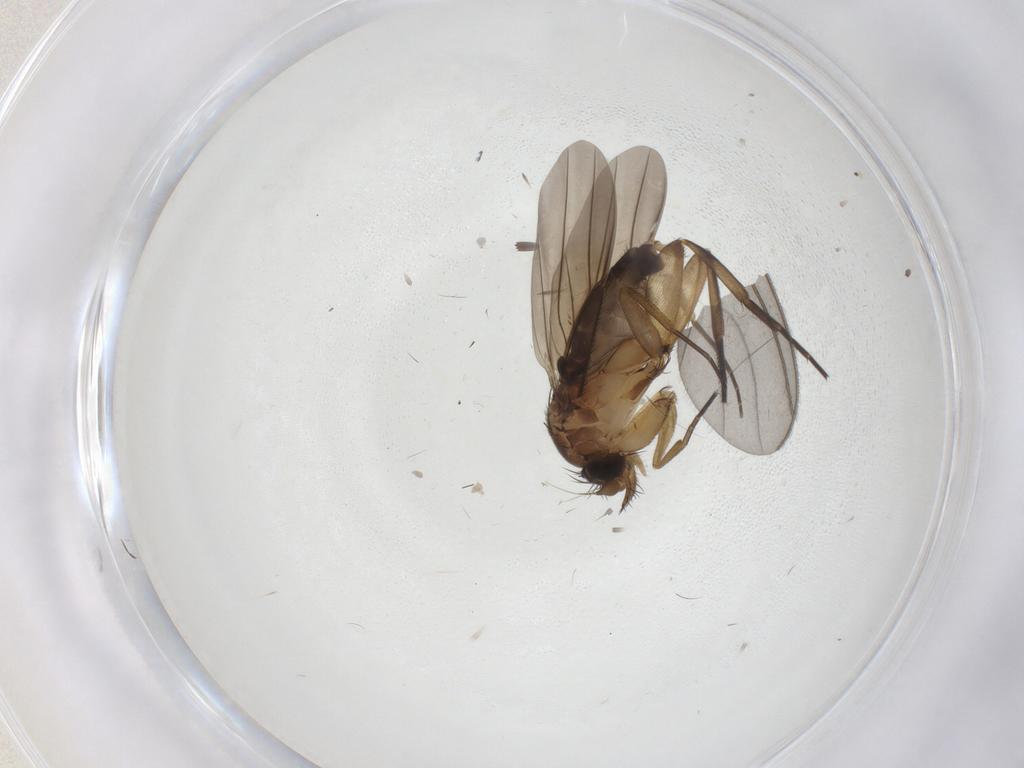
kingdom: Animalia
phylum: Arthropoda
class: Insecta
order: Diptera
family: Phoridae
